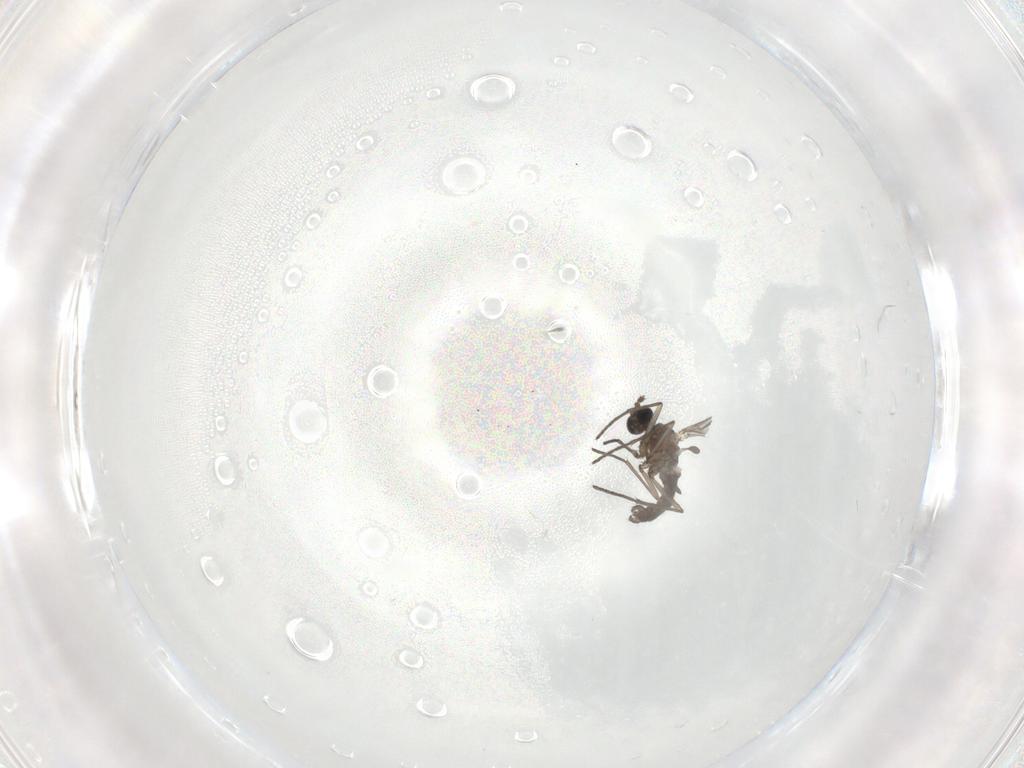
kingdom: Animalia
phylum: Arthropoda
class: Insecta
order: Diptera
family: Sciaridae
